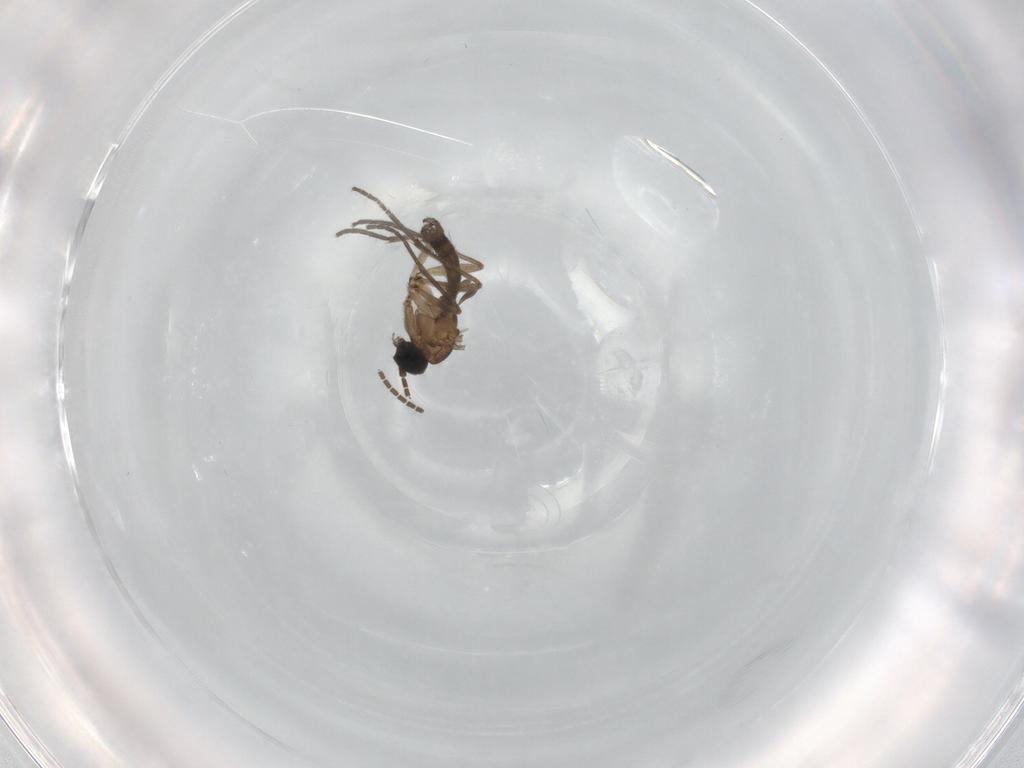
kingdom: Animalia
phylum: Arthropoda
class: Insecta
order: Diptera
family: Sciaridae
